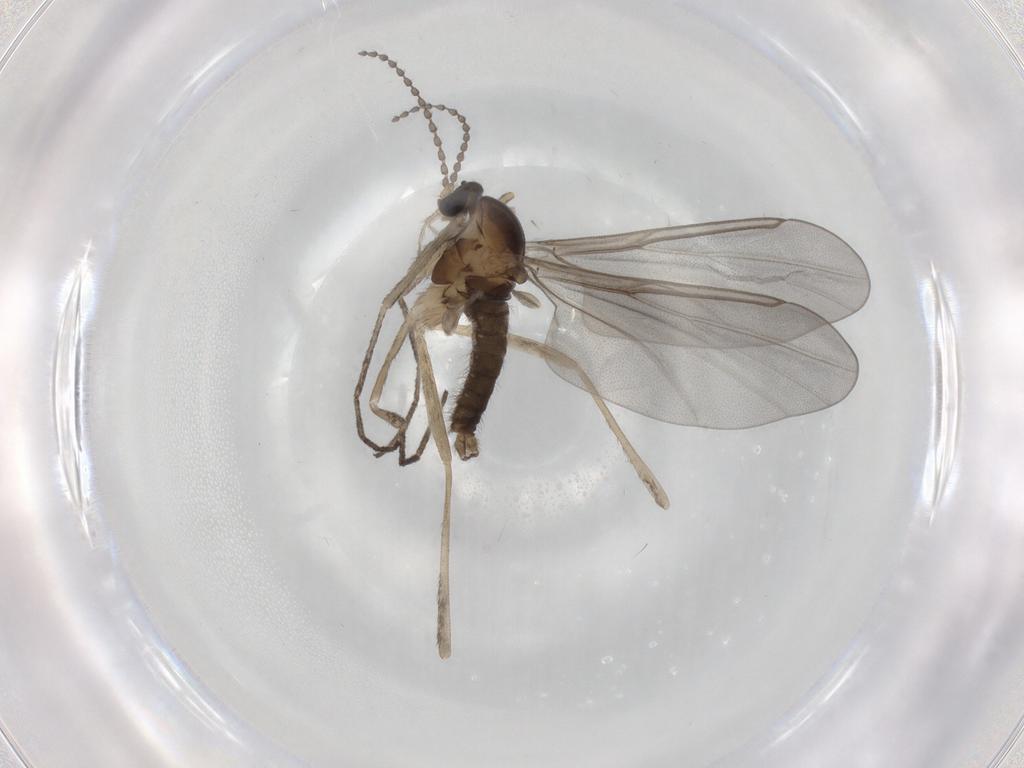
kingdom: Animalia
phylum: Arthropoda
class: Insecta
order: Diptera
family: Cecidomyiidae
